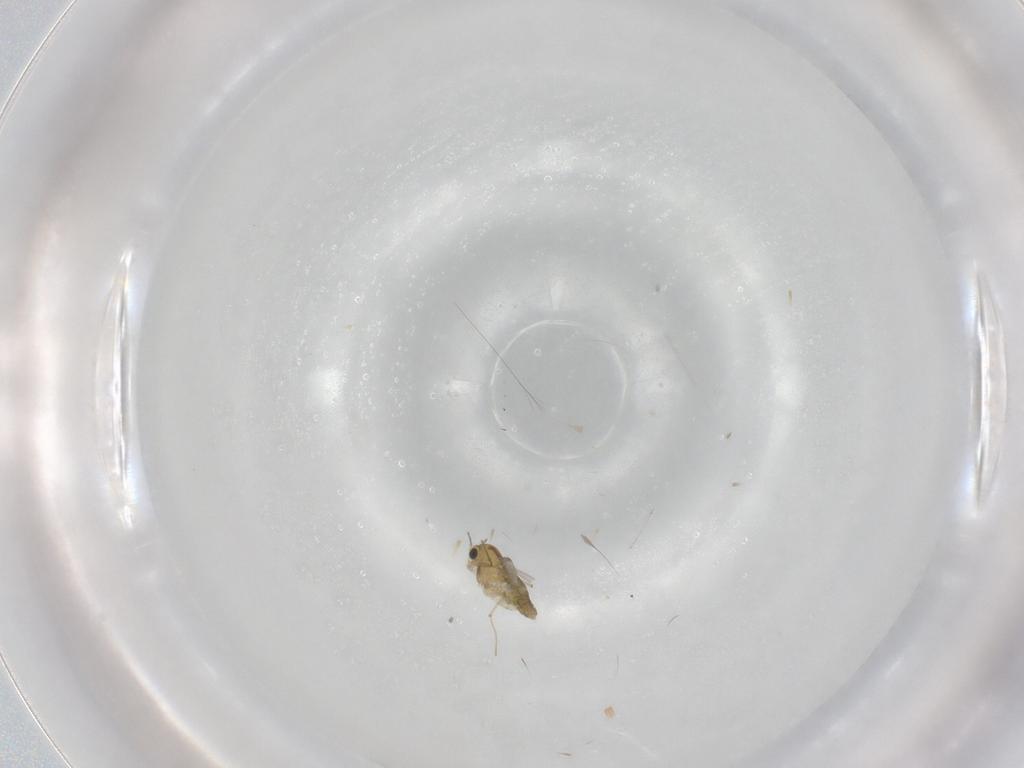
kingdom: Animalia
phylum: Arthropoda
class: Insecta
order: Diptera
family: Chironomidae
